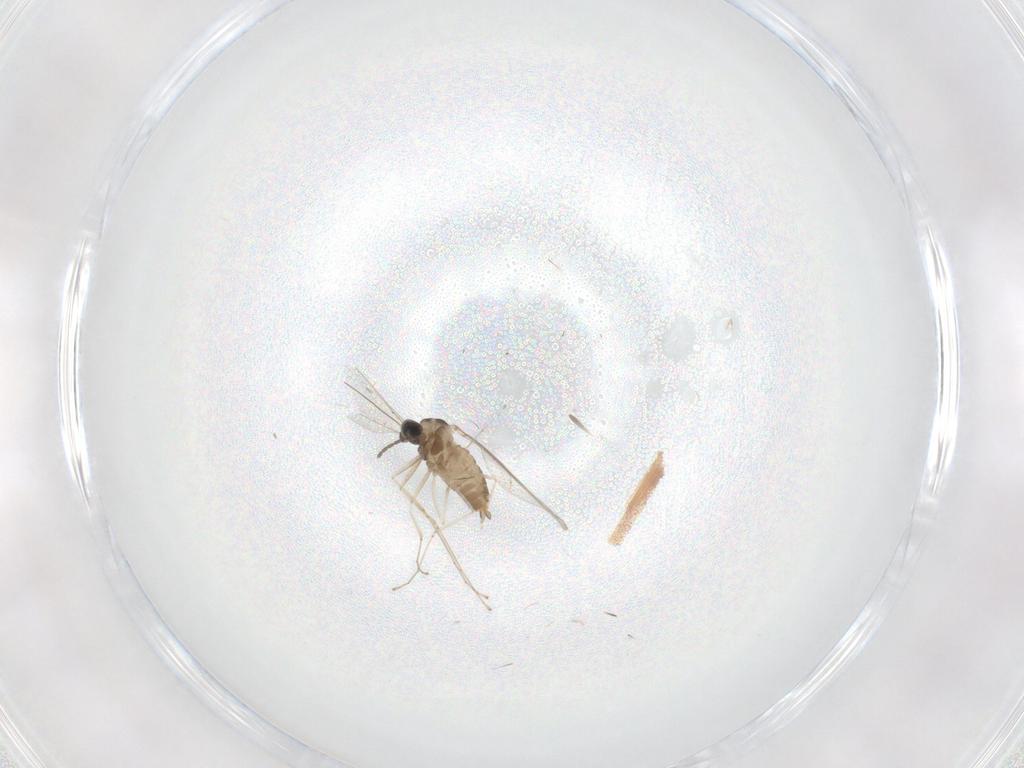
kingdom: Animalia
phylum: Arthropoda
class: Insecta
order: Diptera
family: Cecidomyiidae
